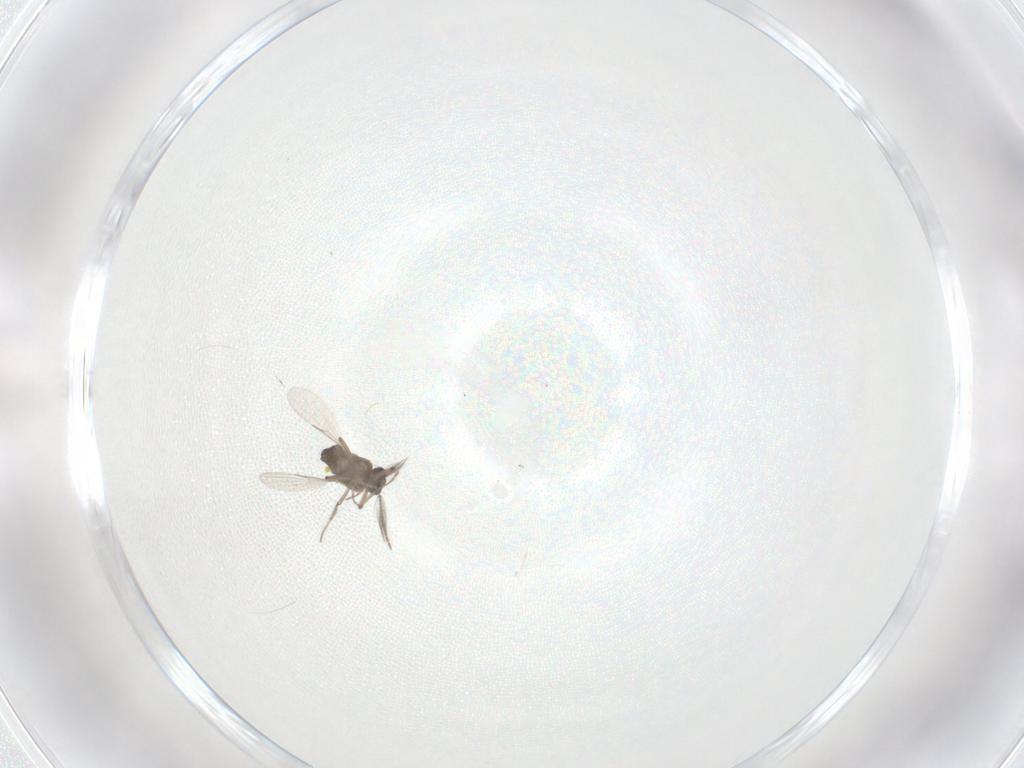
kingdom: Animalia
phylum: Arthropoda
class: Insecta
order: Diptera
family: Ceratopogonidae
